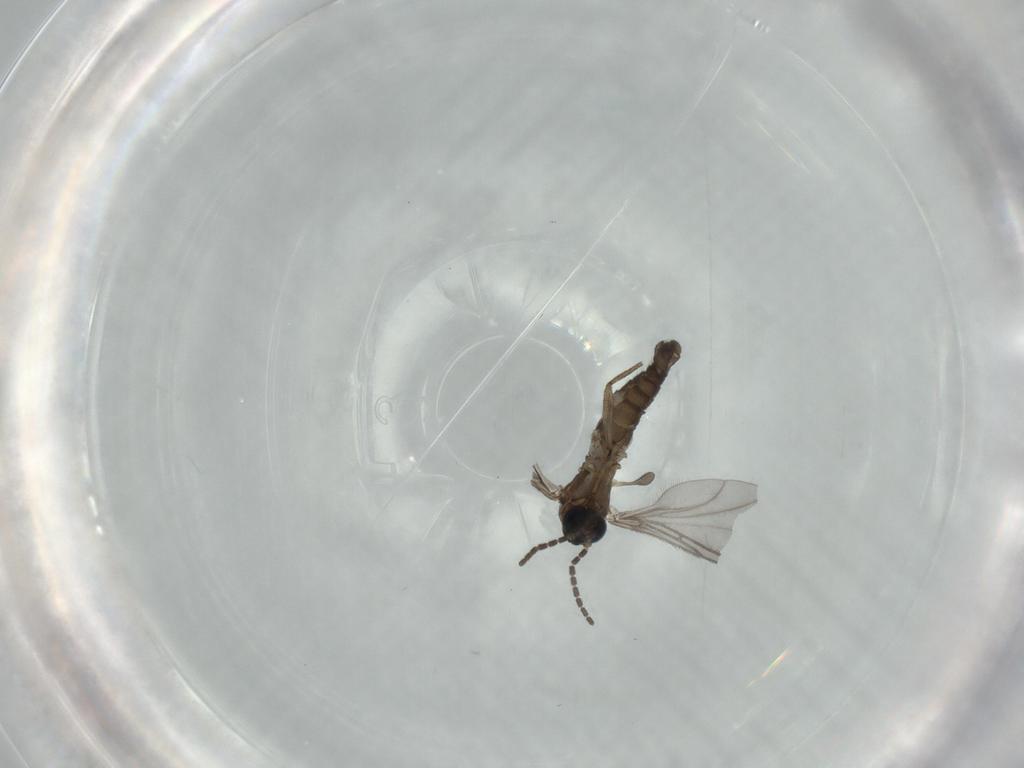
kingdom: Animalia
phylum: Arthropoda
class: Insecta
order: Diptera
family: Sciaridae
